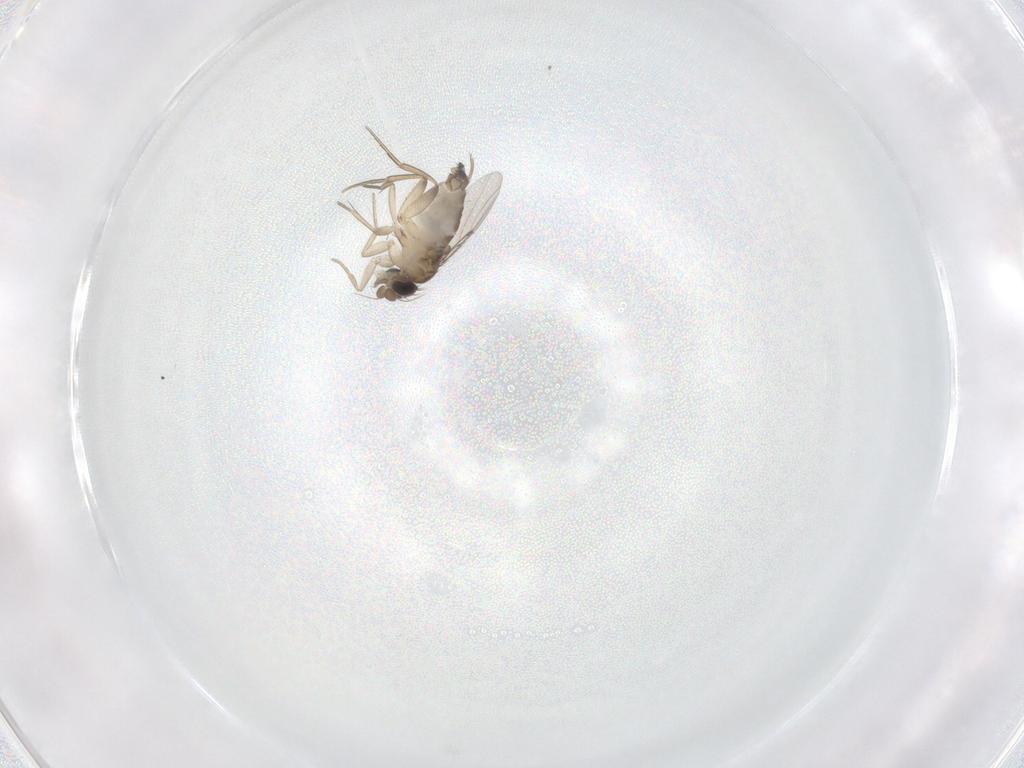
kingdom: Animalia
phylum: Arthropoda
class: Insecta
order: Diptera
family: Phoridae
